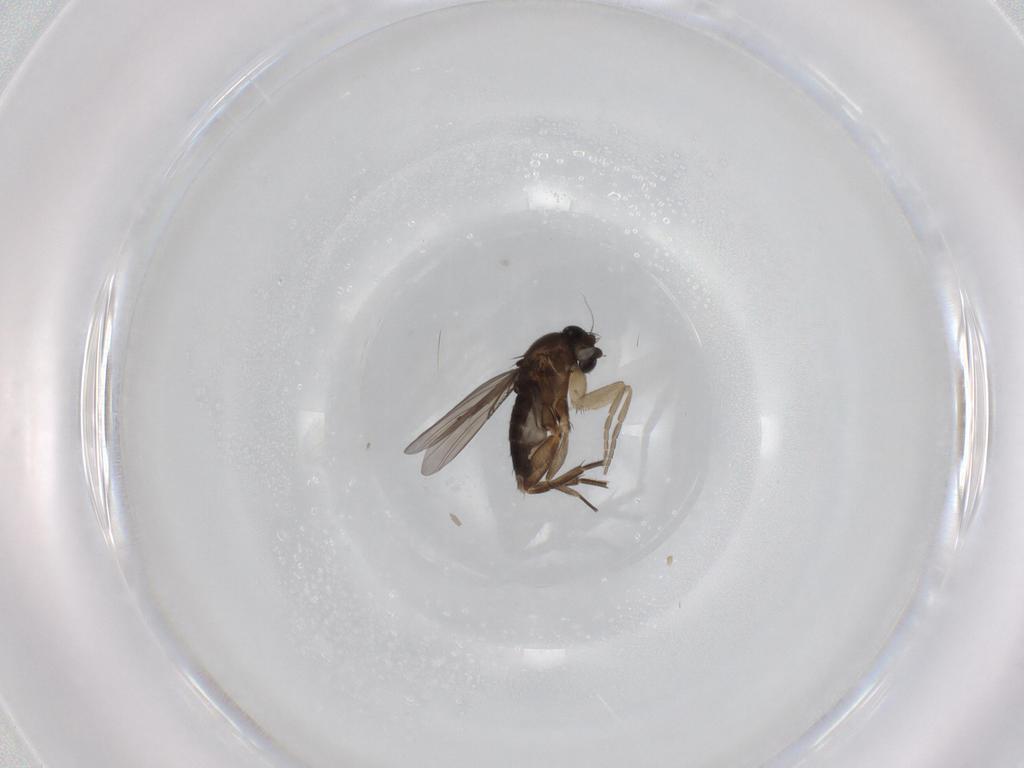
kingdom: Animalia
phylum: Arthropoda
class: Insecta
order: Diptera
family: Phoridae
